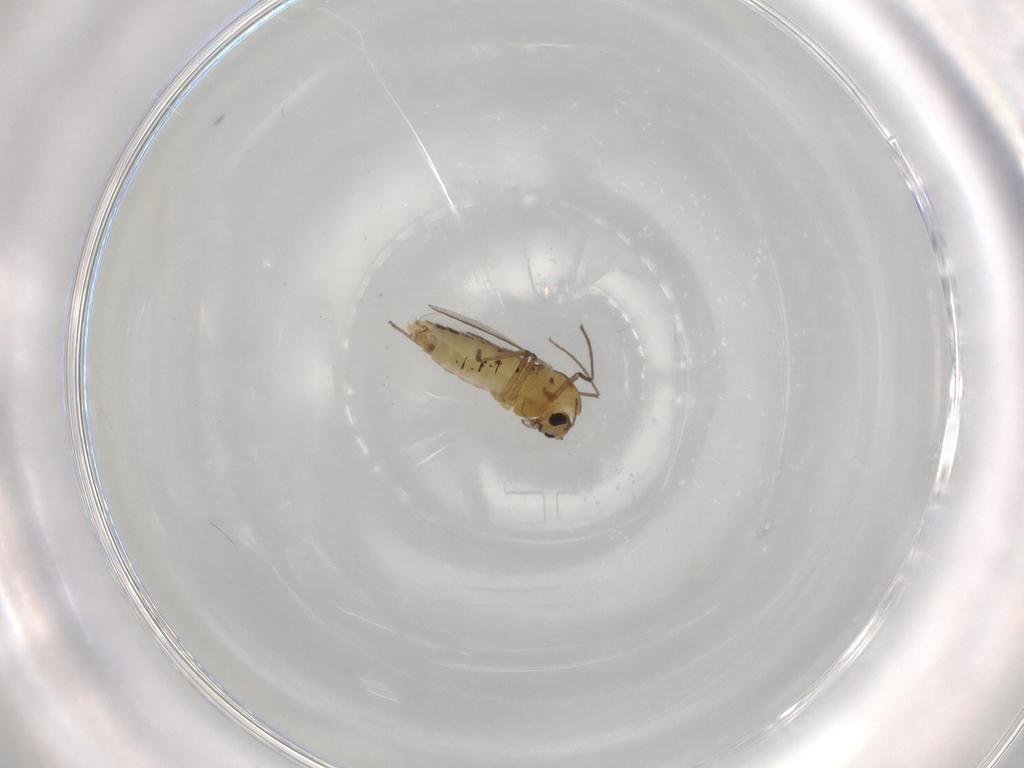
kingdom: Animalia
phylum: Arthropoda
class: Insecta
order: Diptera
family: Chironomidae
